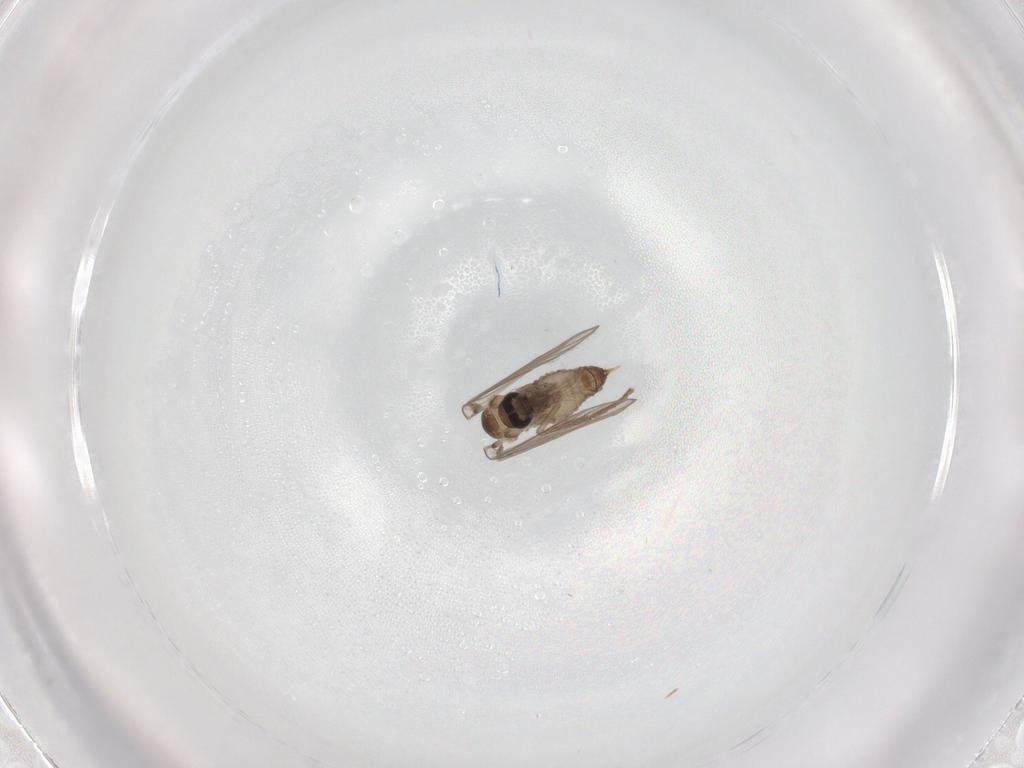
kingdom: Animalia
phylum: Arthropoda
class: Insecta
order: Diptera
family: Psychodidae
